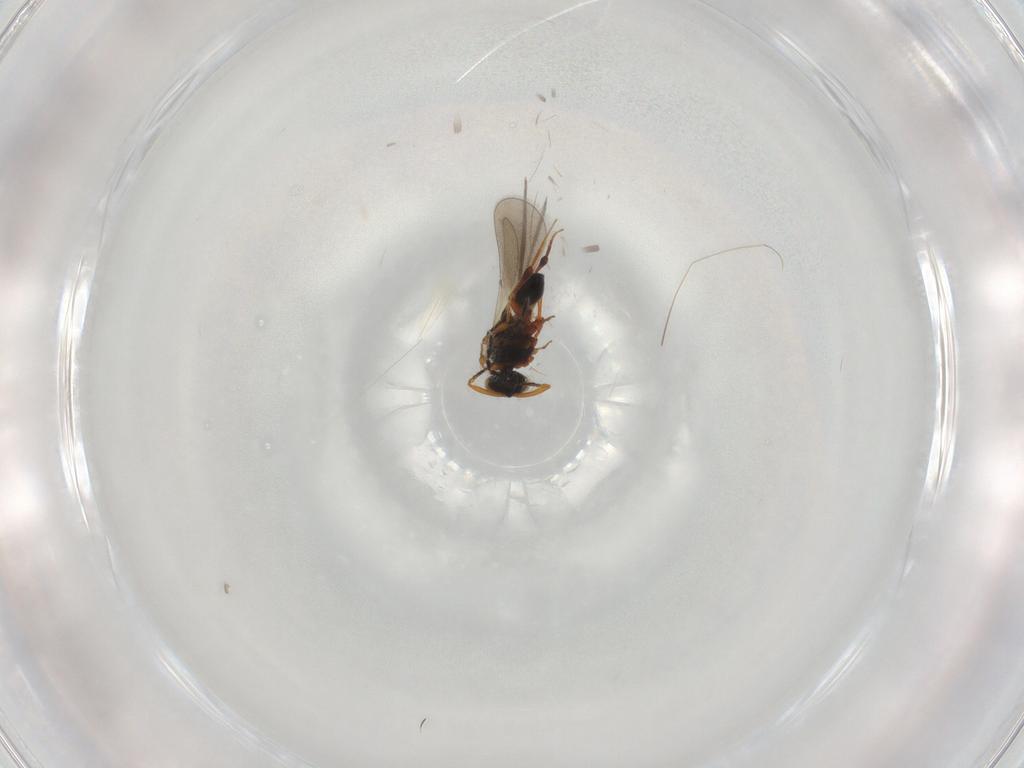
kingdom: Animalia
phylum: Arthropoda
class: Insecta
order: Hymenoptera
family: Platygastridae
